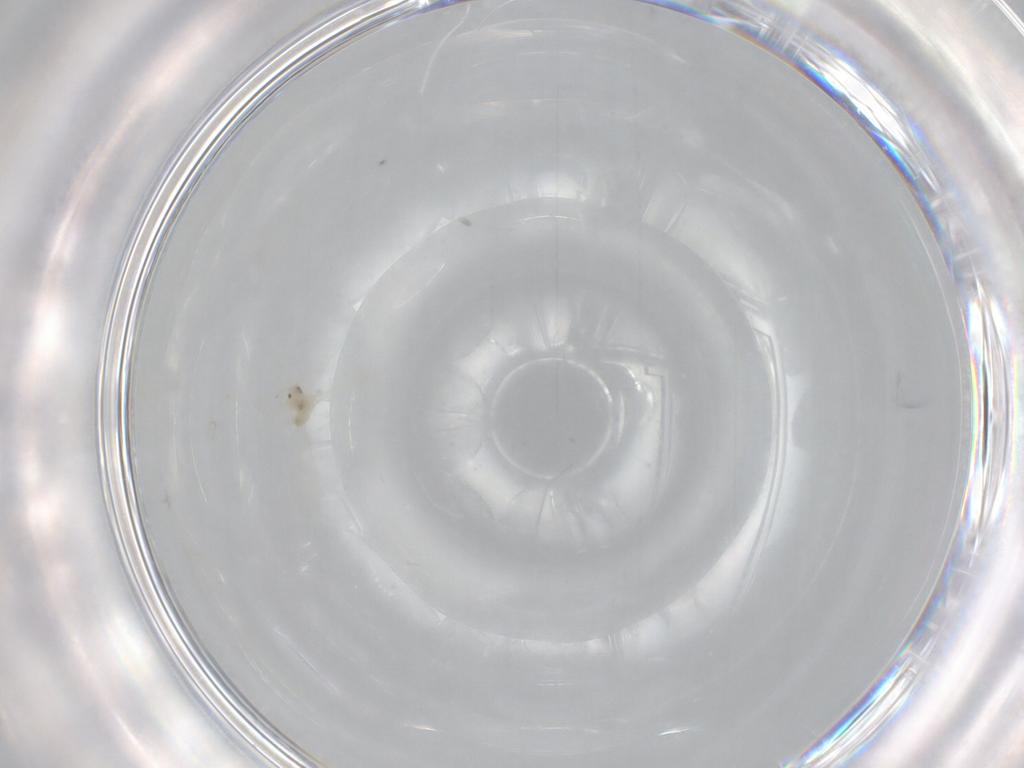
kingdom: Animalia
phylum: Arthropoda
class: Insecta
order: Diptera
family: Cecidomyiidae
